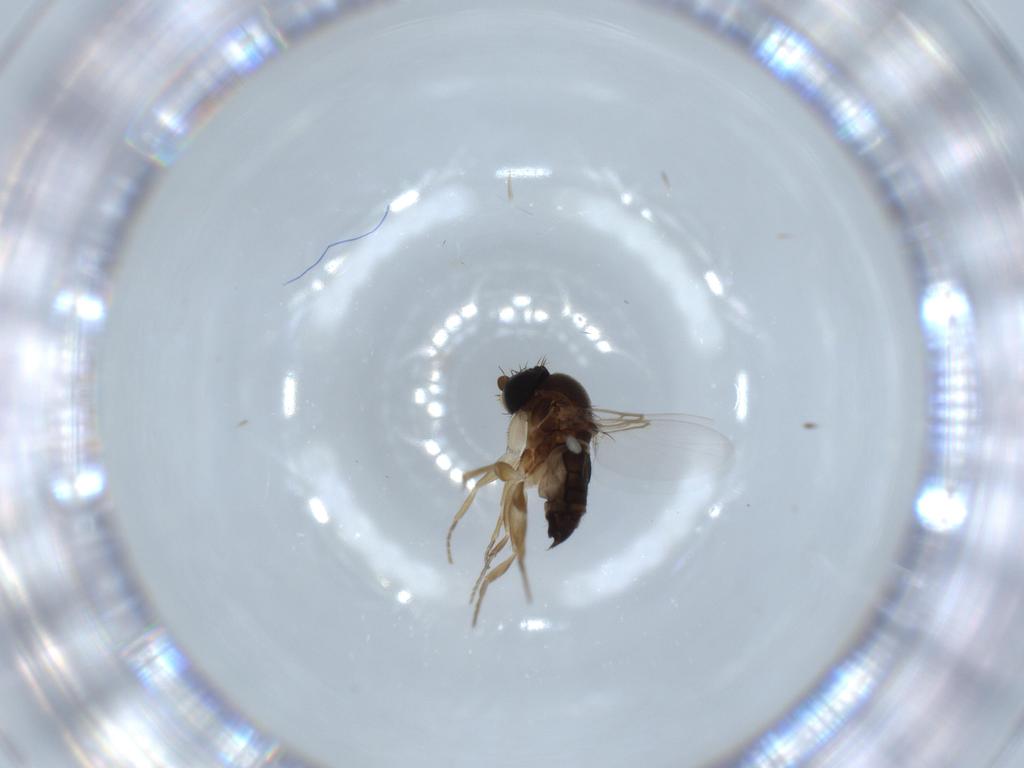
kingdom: Animalia
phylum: Arthropoda
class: Insecta
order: Diptera
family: Phoridae
